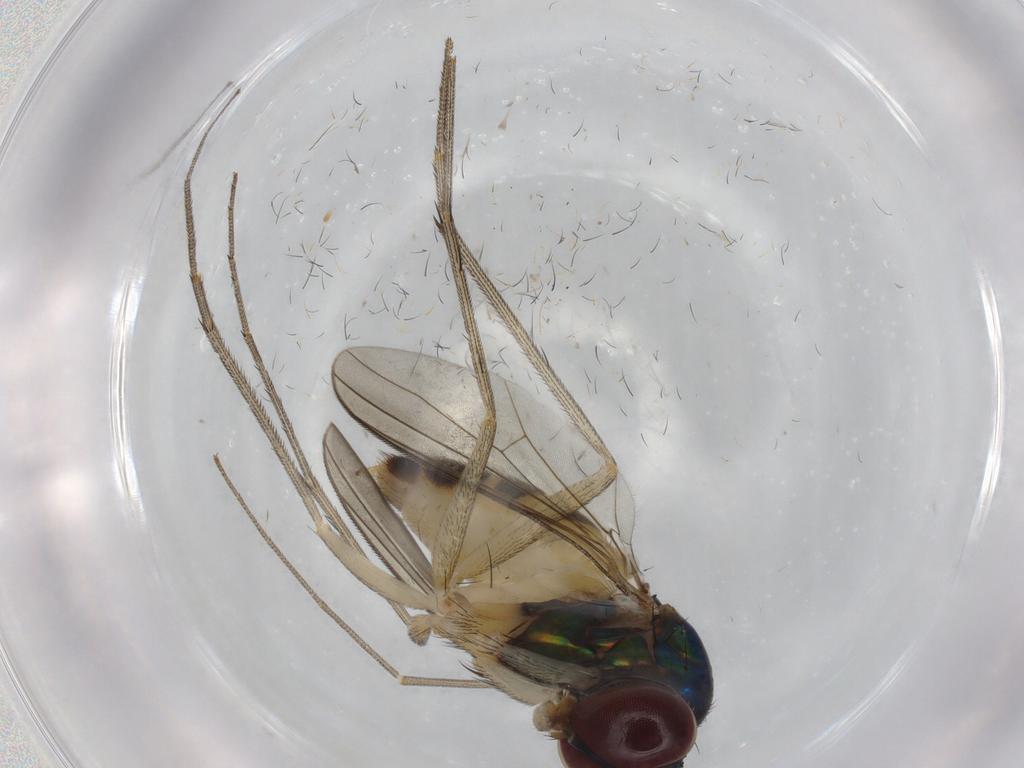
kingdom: Animalia
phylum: Arthropoda
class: Insecta
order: Diptera
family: Dolichopodidae
